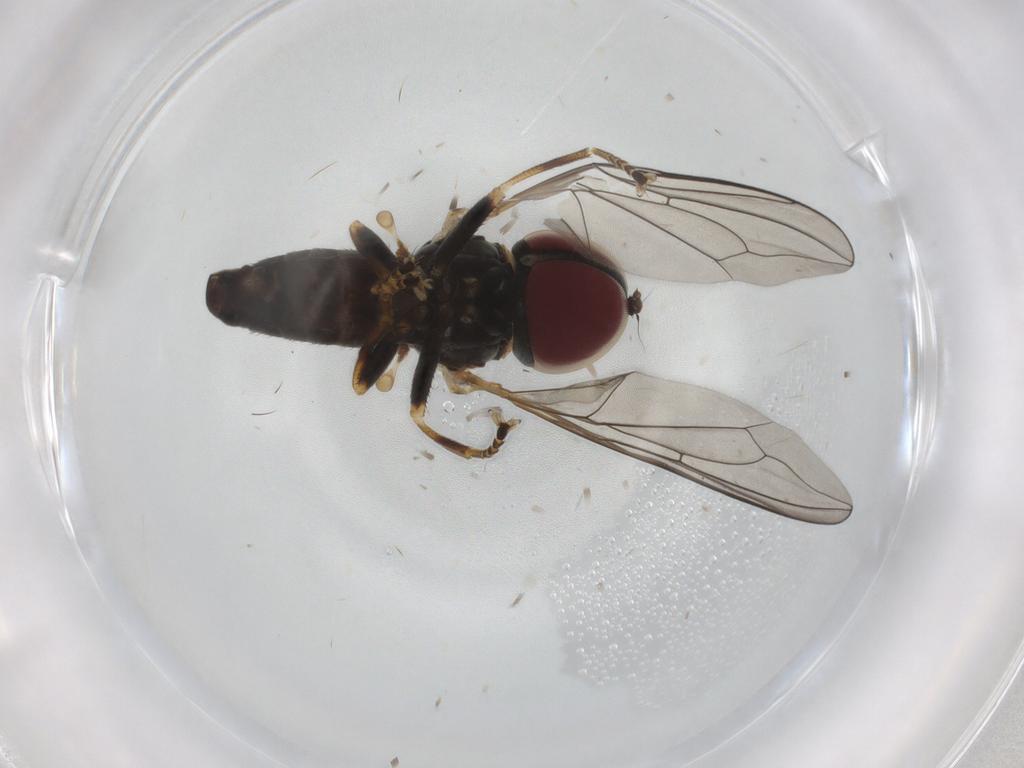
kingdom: Animalia
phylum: Arthropoda
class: Insecta
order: Diptera
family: Pipunculidae
